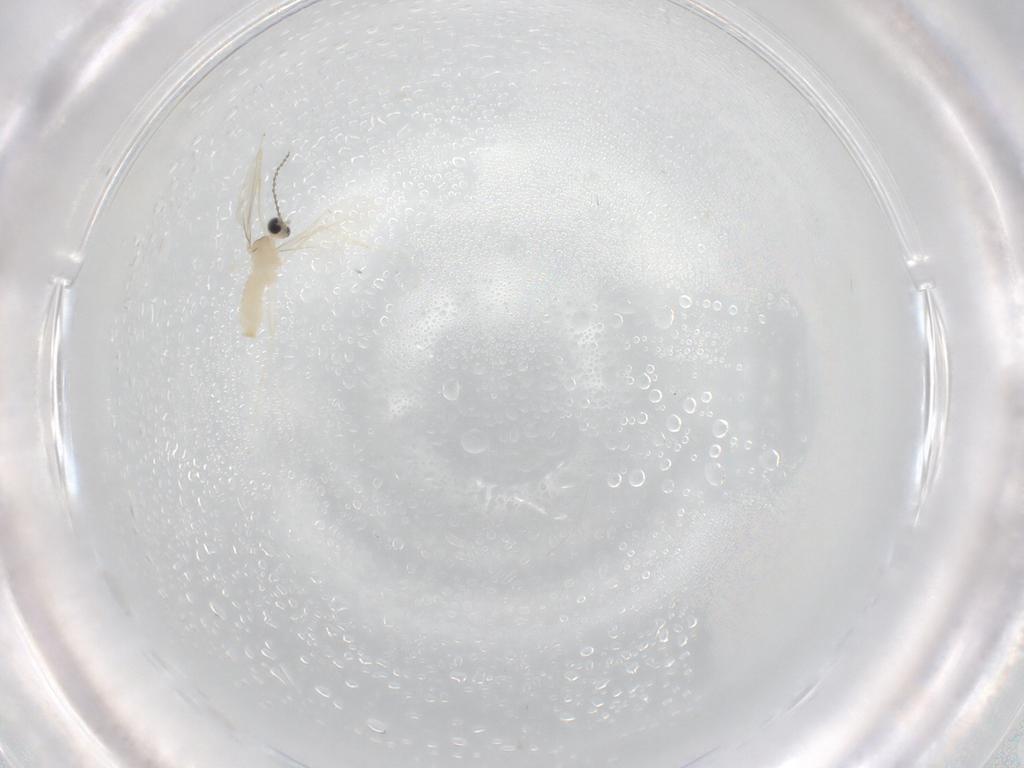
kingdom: Animalia
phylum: Arthropoda
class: Insecta
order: Diptera
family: Cecidomyiidae
